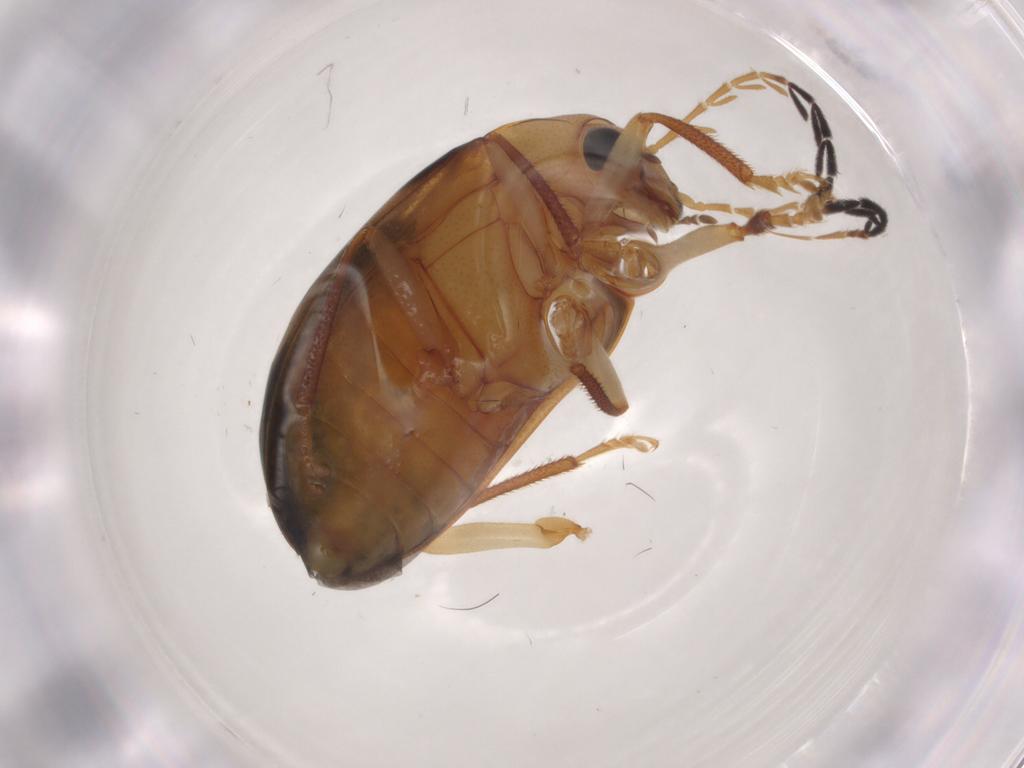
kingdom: Animalia
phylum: Arthropoda
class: Insecta
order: Coleoptera
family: Ptilodactylidae
